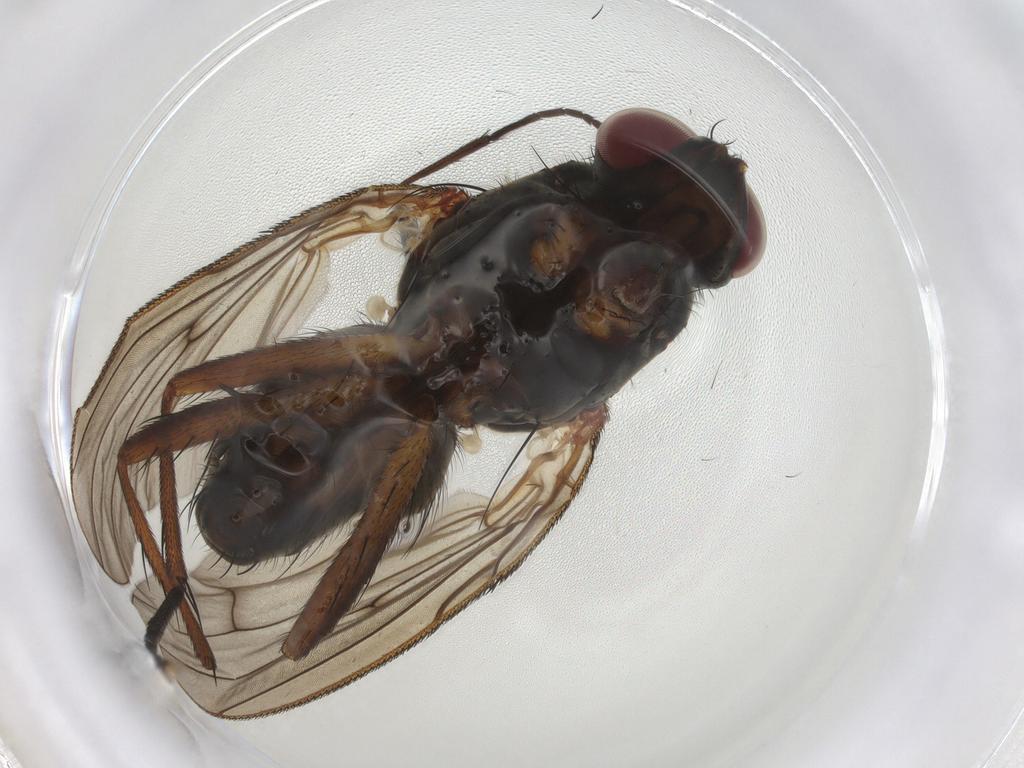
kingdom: Animalia
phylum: Arthropoda
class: Insecta
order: Diptera
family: Anthomyiidae
